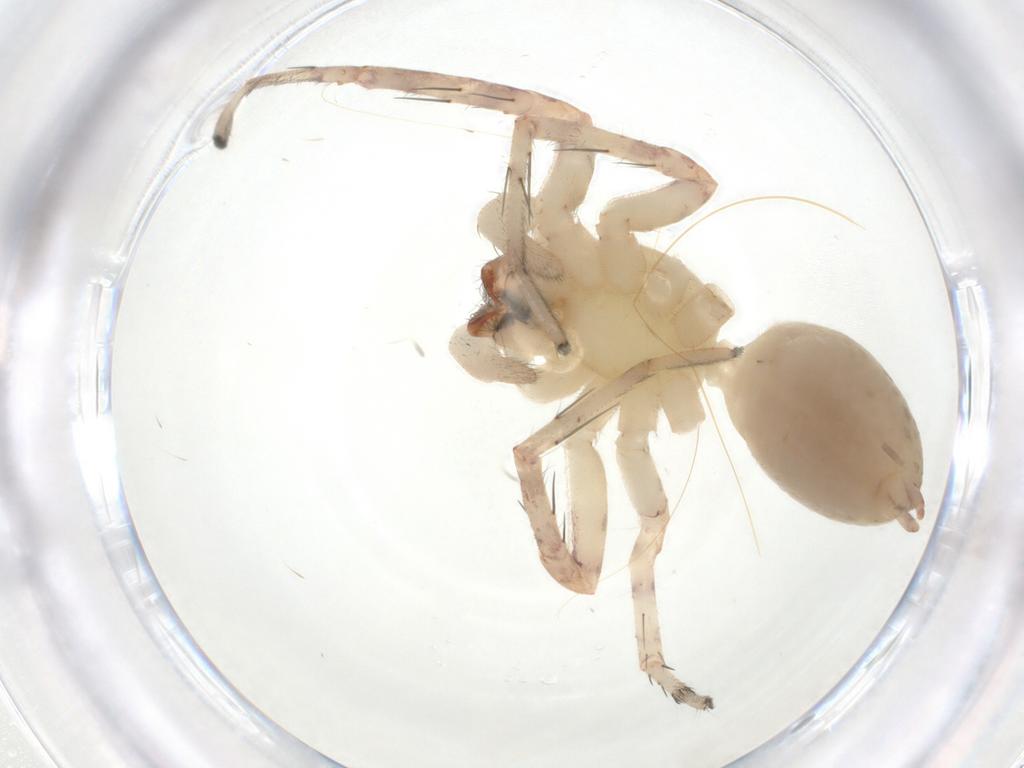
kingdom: Animalia
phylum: Arthropoda
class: Arachnida
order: Araneae
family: Anyphaenidae
